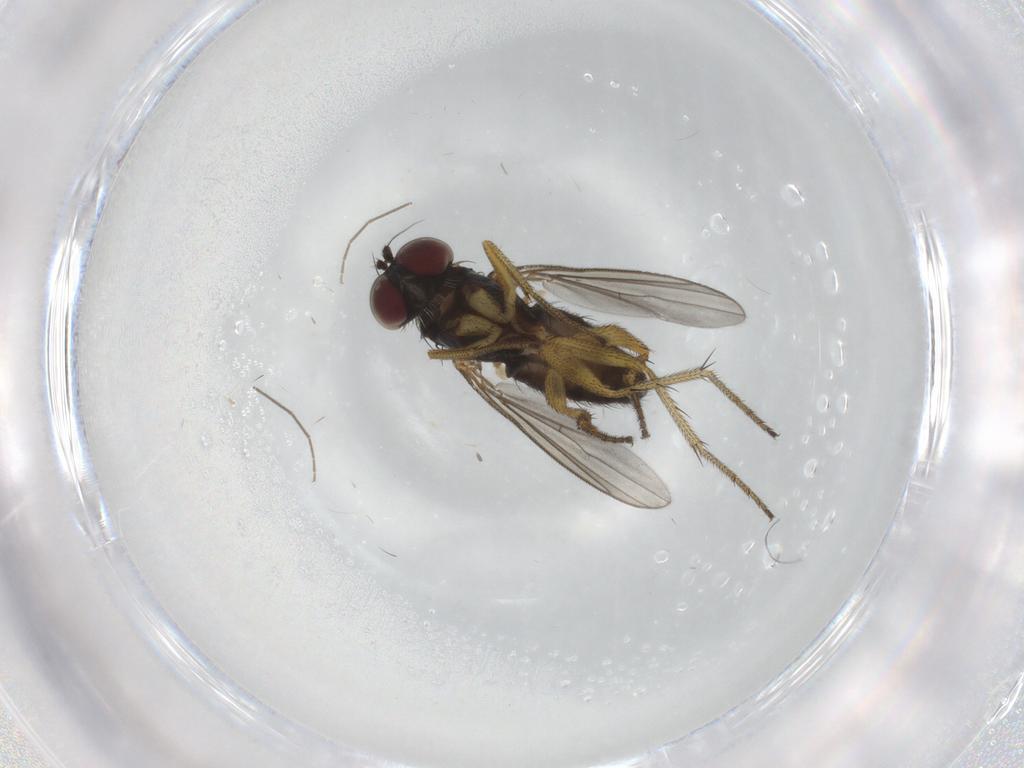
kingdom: Animalia
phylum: Arthropoda
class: Insecta
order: Diptera
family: Dolichopodidae
